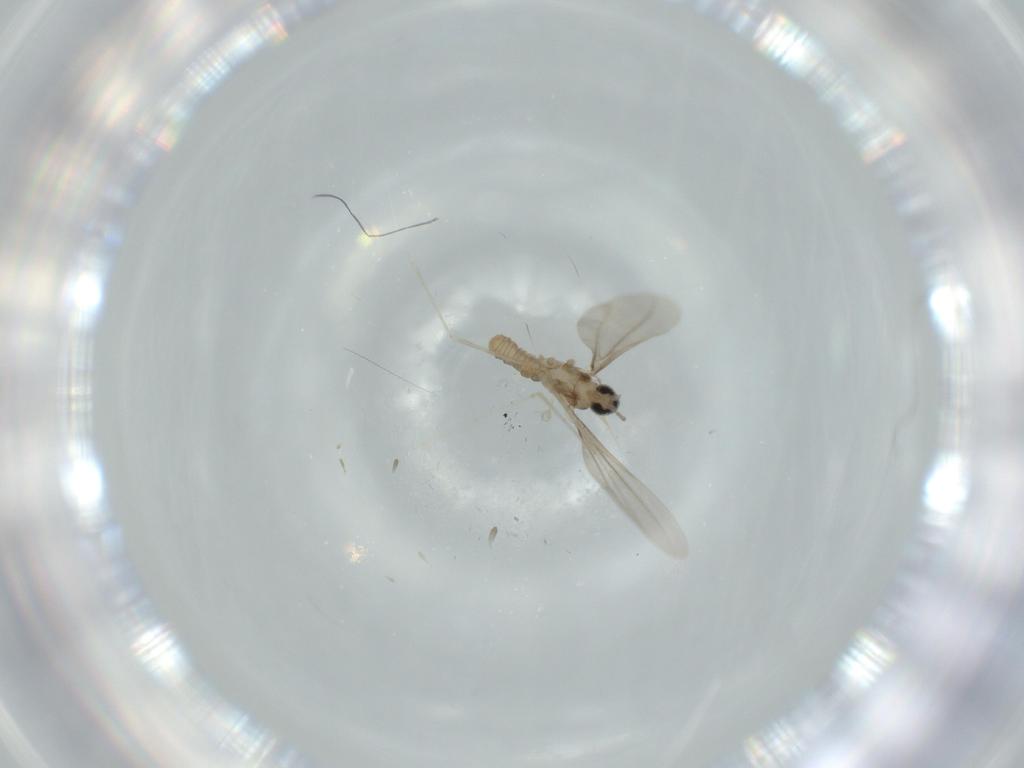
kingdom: Animalia
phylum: Arthropoda
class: Insecta
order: Diptera
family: Cecidomyiidae
